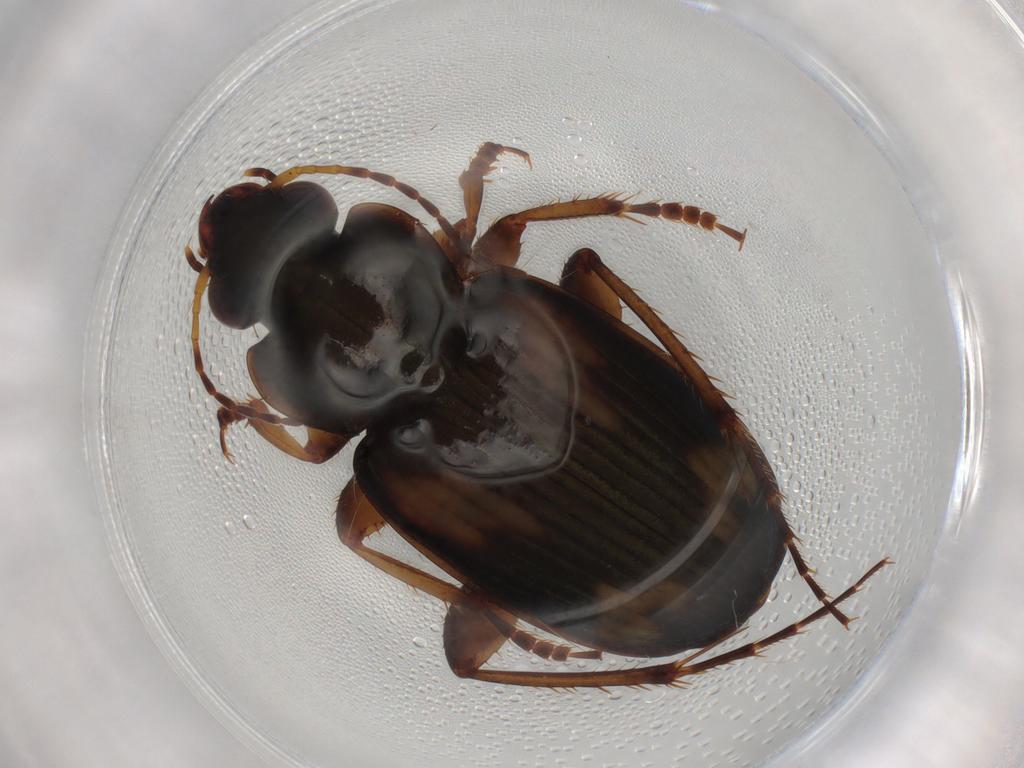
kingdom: Animalia
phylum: Arthropoda
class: Insecta
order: Coleoptera
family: Carabidae
